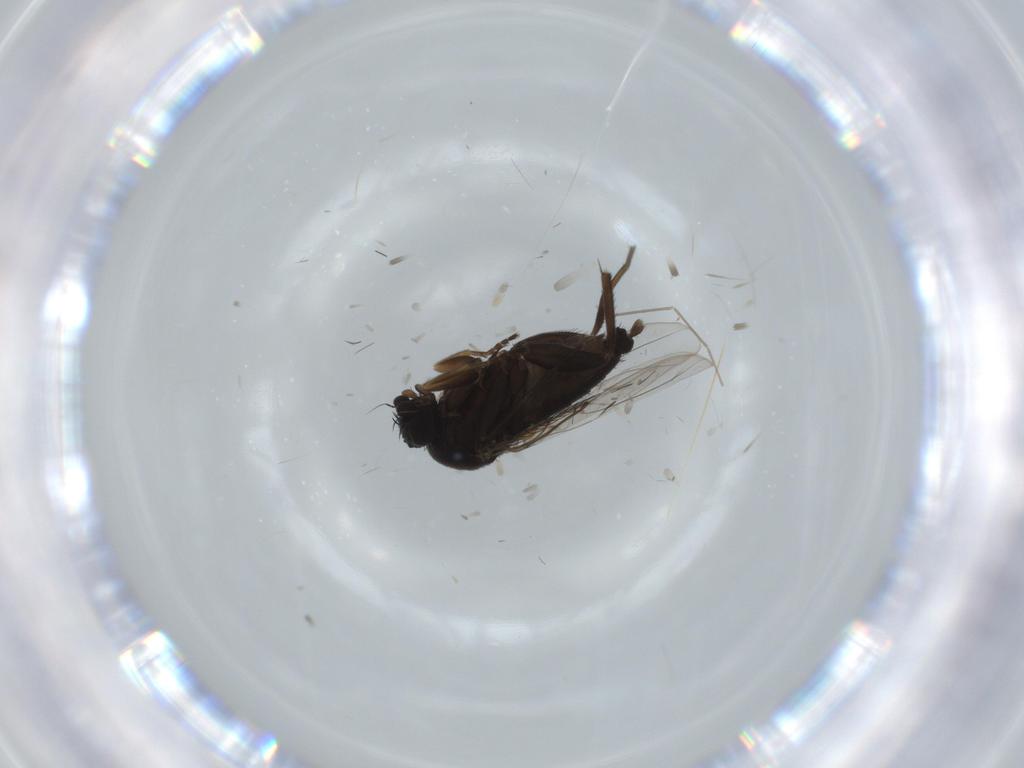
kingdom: Animalia
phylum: Arthropoda
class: Insecta
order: Diptera
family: Phoridae
